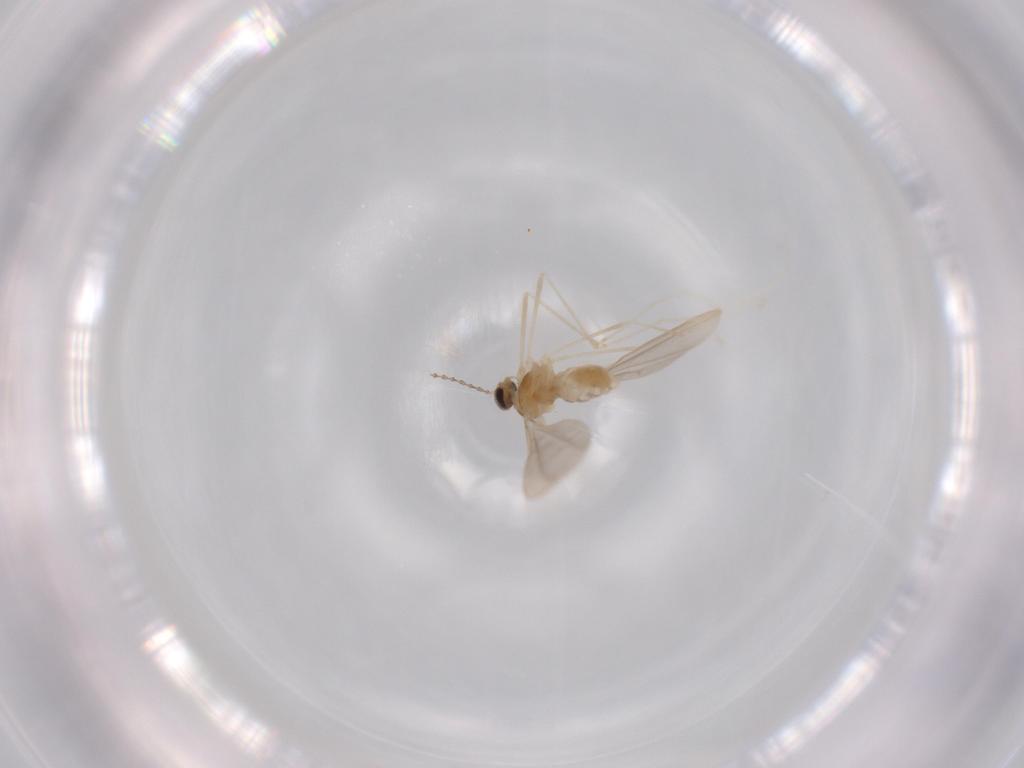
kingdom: Animalia
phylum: Arthropoda
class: Insecta
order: Diptera
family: Cecidomyiidae
